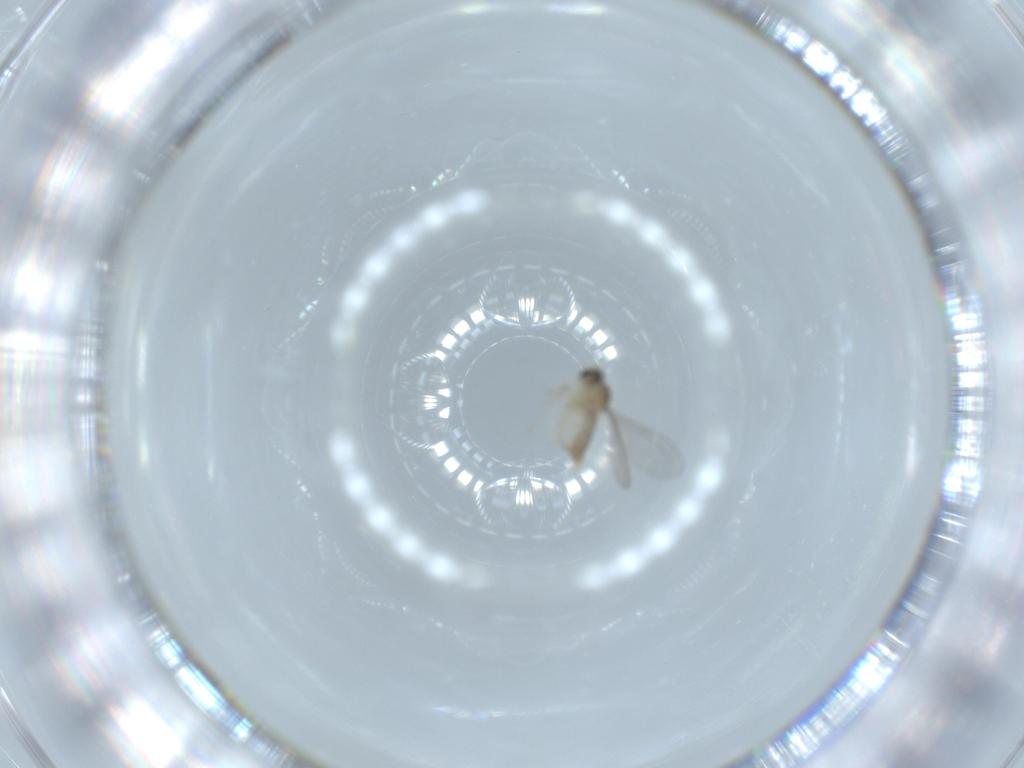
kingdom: Animalia
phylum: Arthropoda
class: Insecta
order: Diptera
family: Cecidomyiidae
